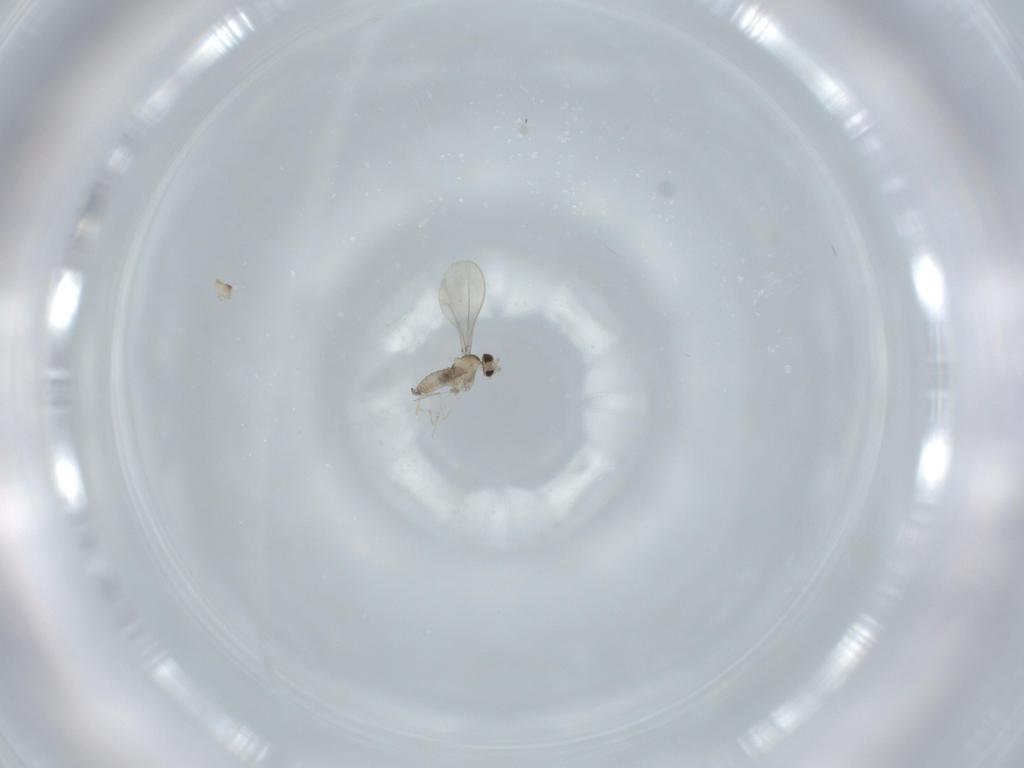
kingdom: Animalia
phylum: Arthropoda
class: Insecta
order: Diptera
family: Cecidomyiidae
